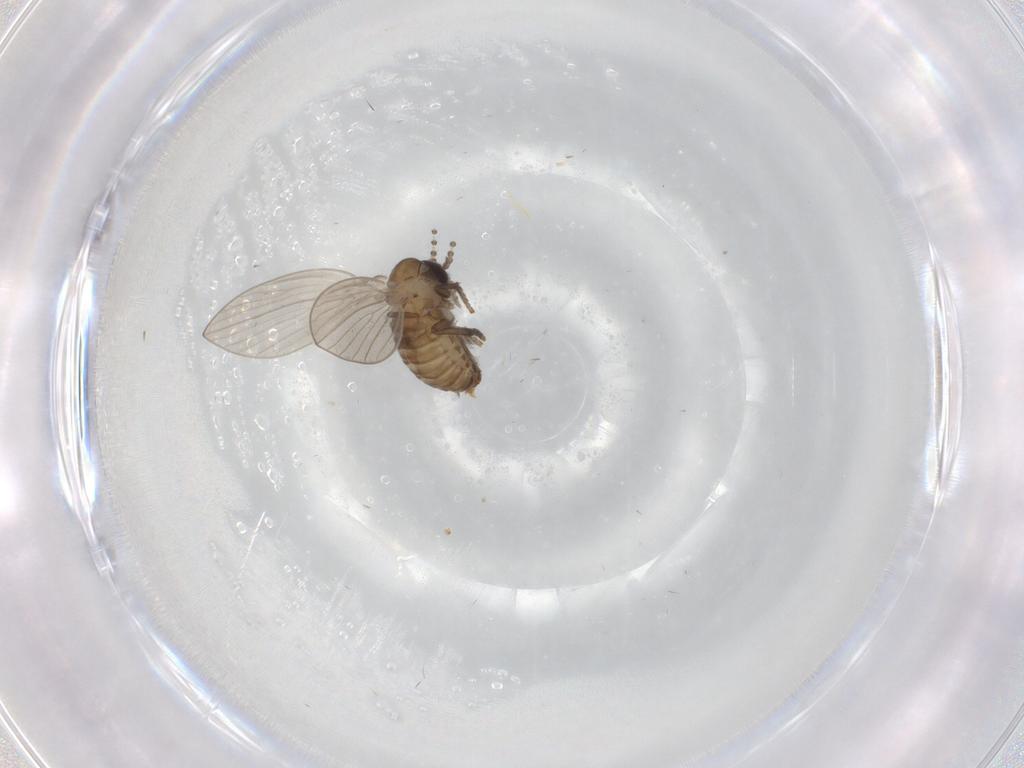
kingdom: Animalia
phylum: Arthropoda
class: Insecta
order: Diptera
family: Psychodidae
